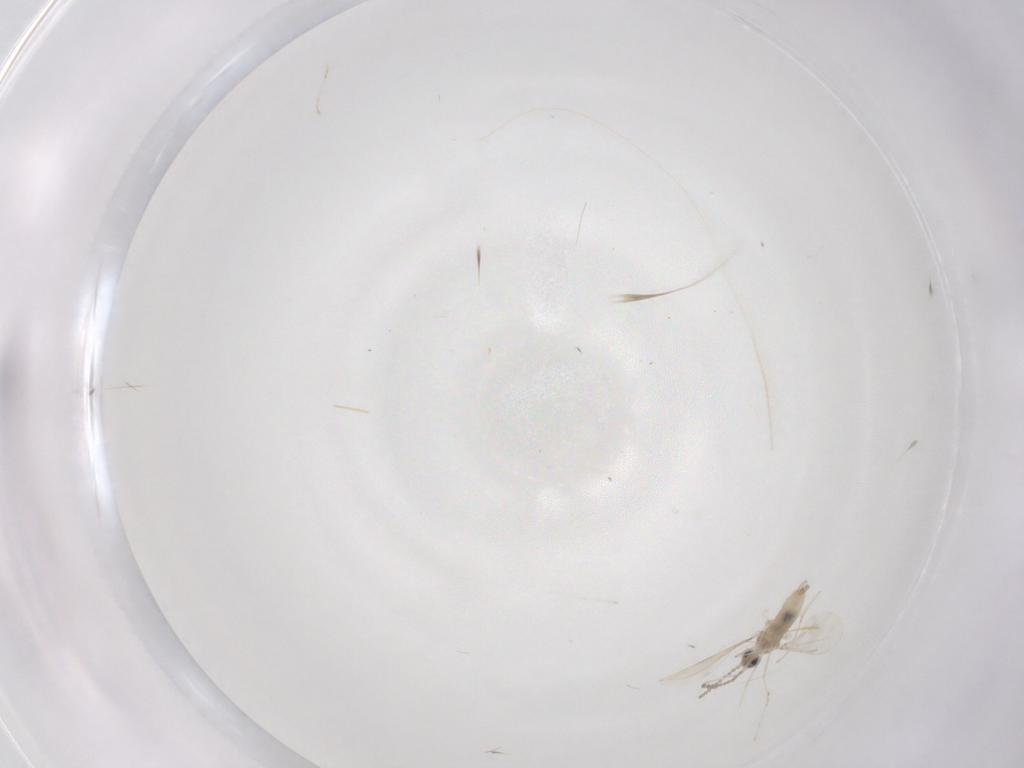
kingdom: Animalia
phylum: Arthropoda
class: Insecta
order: Diptera
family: Cecidomyiidae
